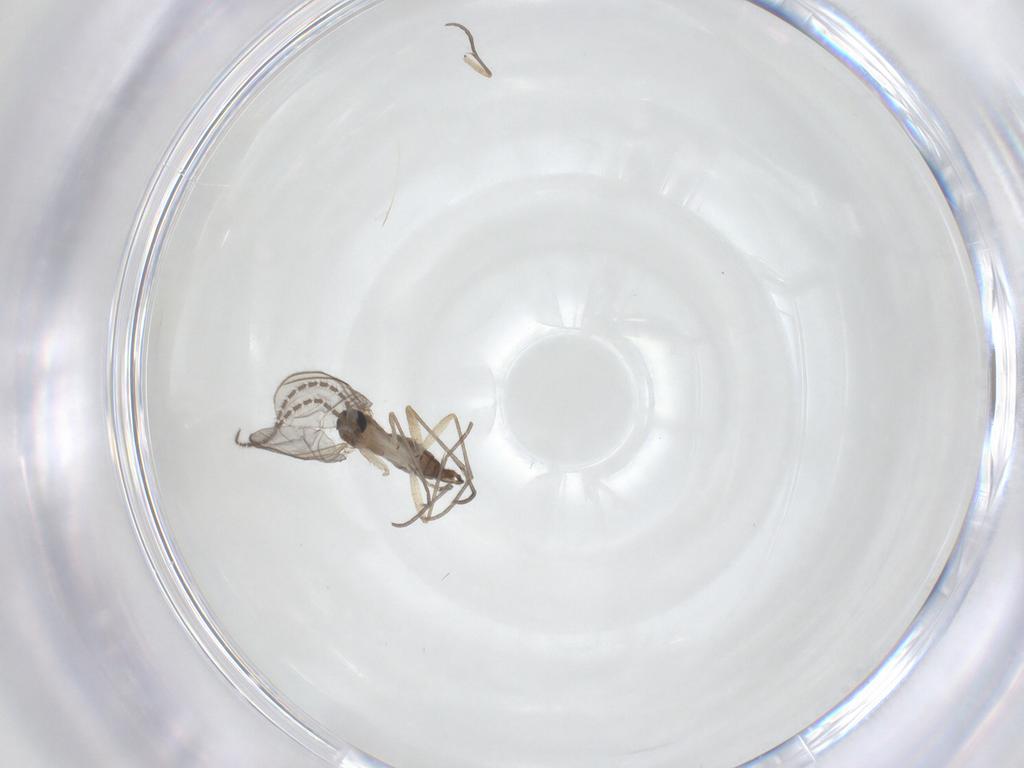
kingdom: Animalia
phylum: Arthropoda
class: Insecta
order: Diptera
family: Sciaridae
